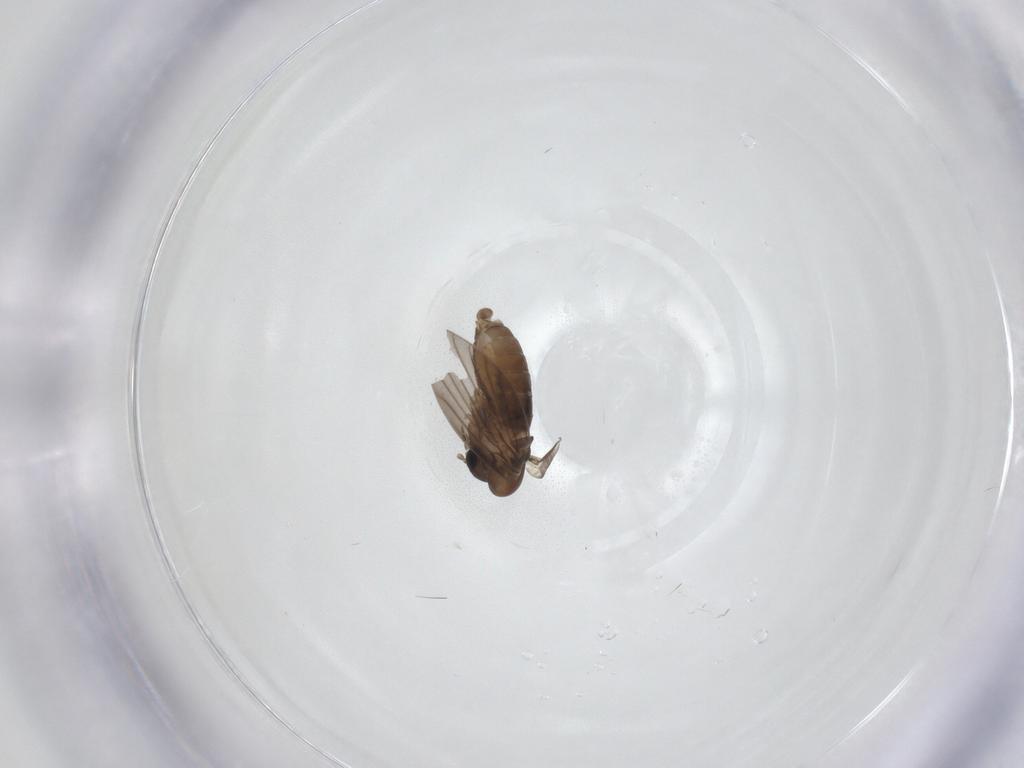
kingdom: Animalia
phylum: Arthropoda
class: Insecta
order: Diptera
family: Psychodidae
